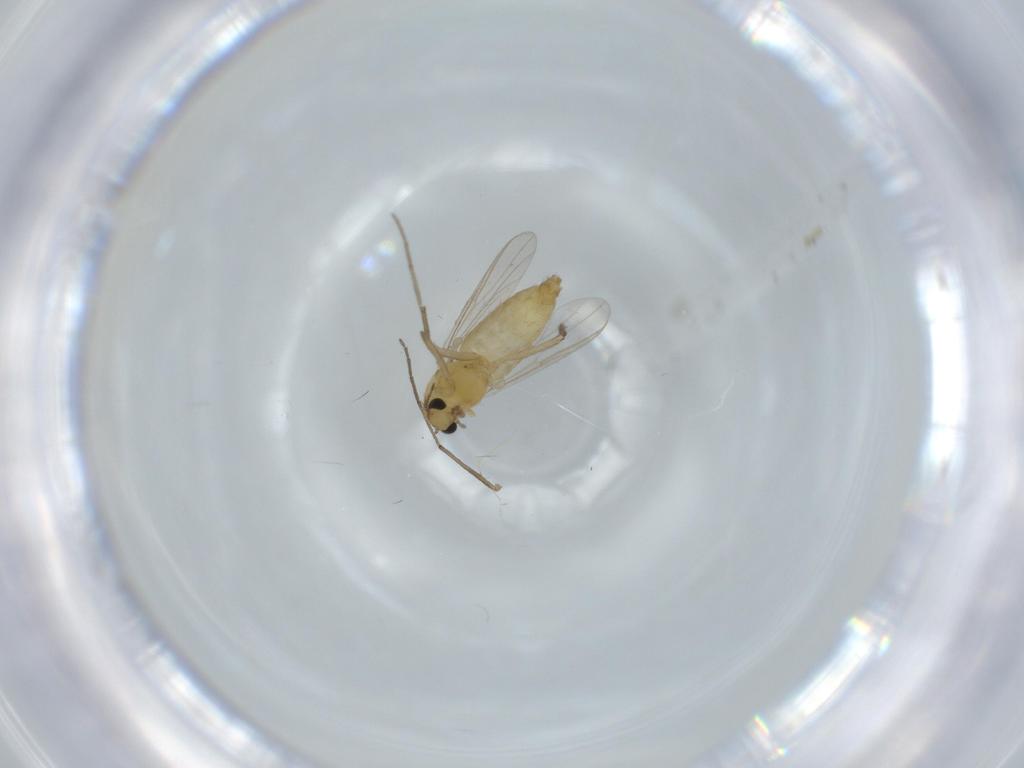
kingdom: Animalia
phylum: Arthropoda
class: Insecta
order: Diptera
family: Chironomidae
